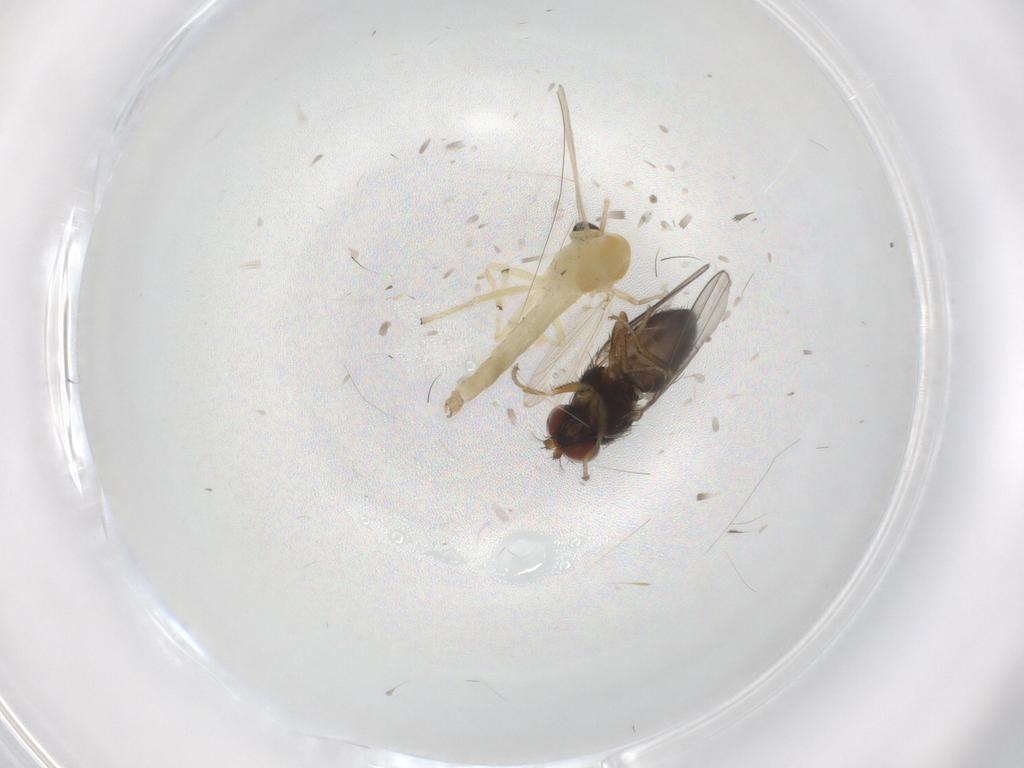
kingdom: Animalia
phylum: Arthropoda
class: Insecta
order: Diptera
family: Chironomidae
